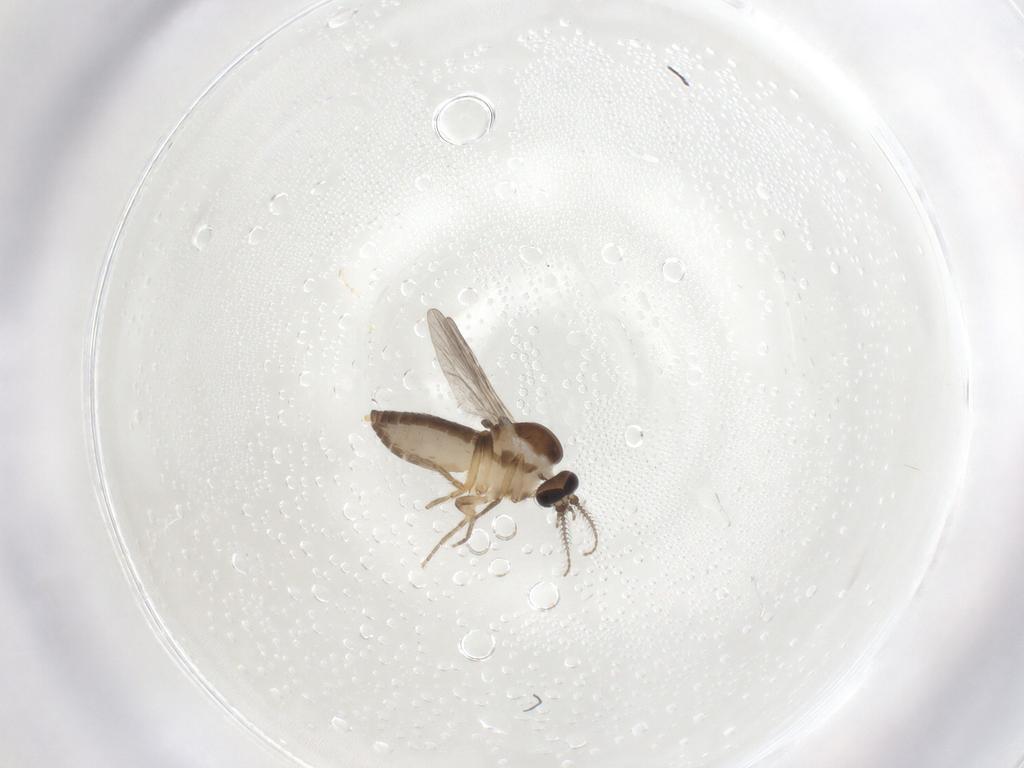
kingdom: Animalia
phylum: Arthropoda
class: Insecta
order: Diptera
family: Ceratopogonidae
